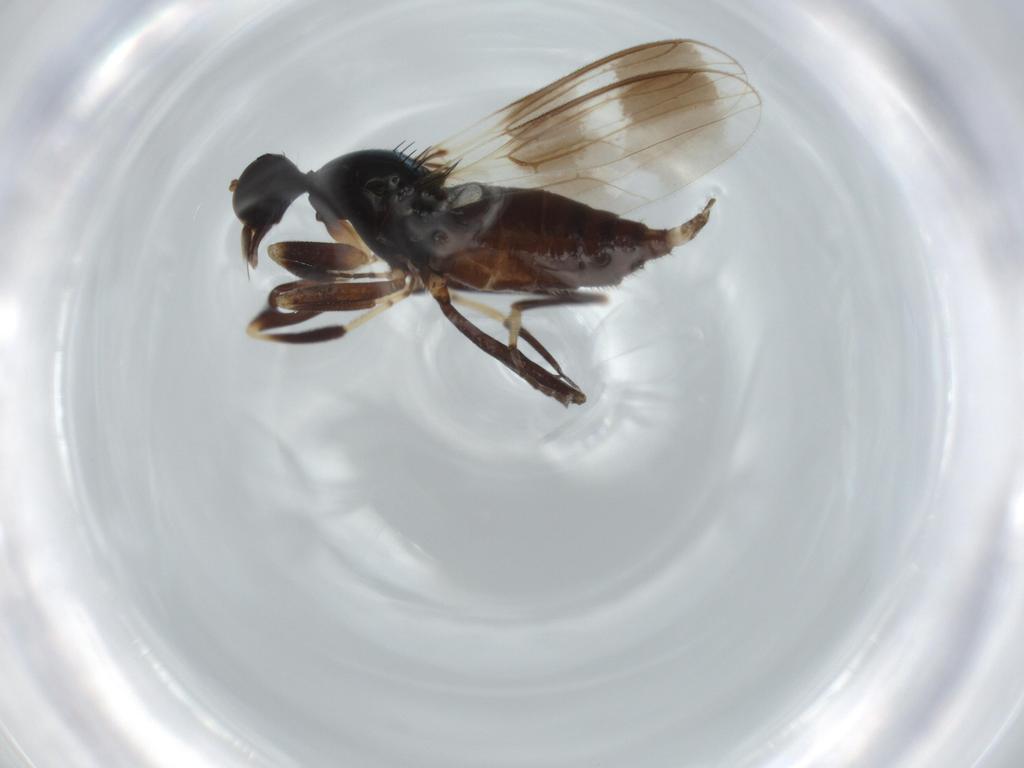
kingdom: Animalia
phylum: Arthropoda
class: Insecta
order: Diptera
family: Hybotidae
